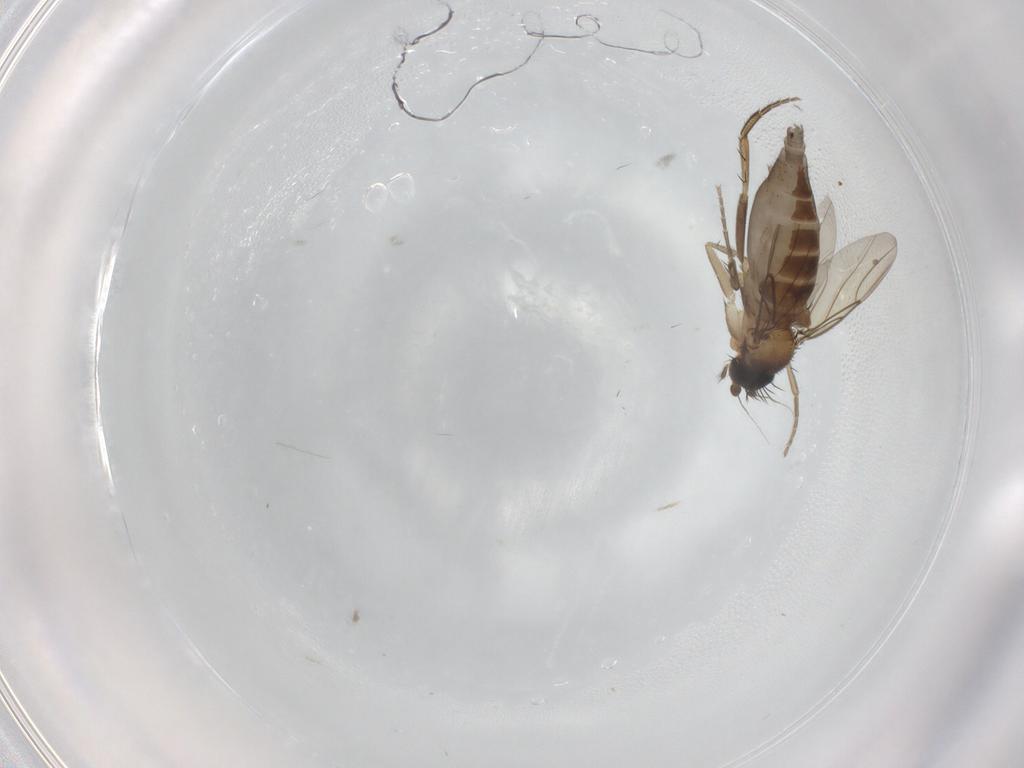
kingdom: Animalia
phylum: Arthropoda
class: Insecta
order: Diptera
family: Phoridae
